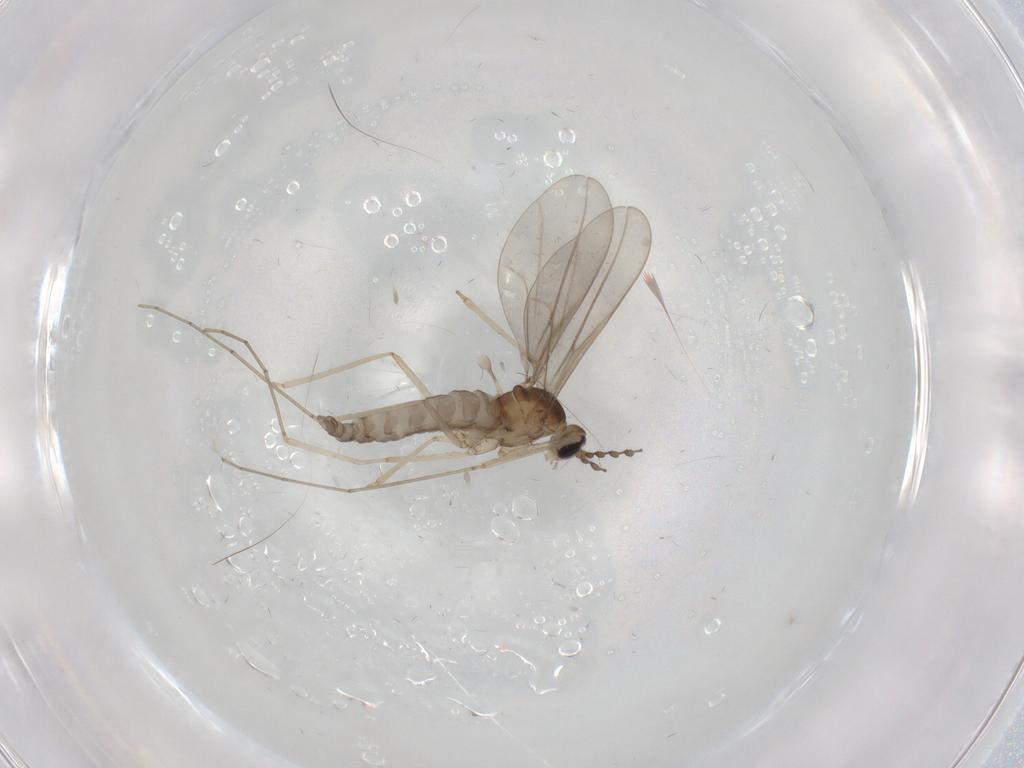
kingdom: Animalia
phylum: Arthropoda
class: Insecta
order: Diptera
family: Cecidomyiidae
